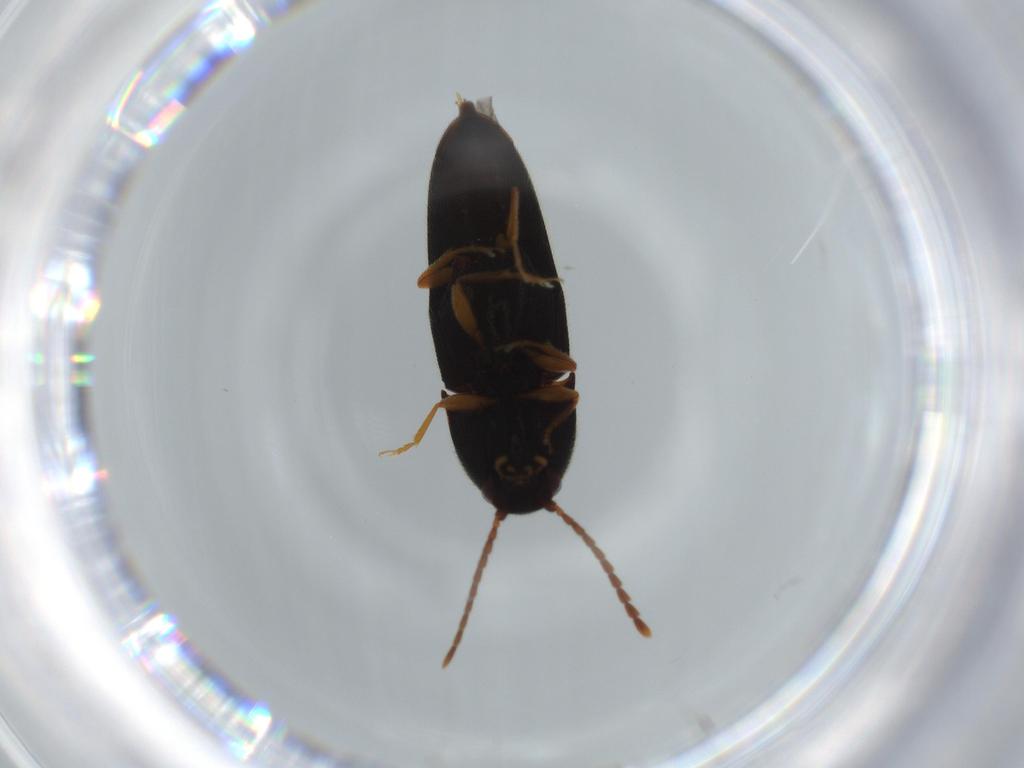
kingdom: Animalia
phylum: Arthropoda
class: Insecta
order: Coleoptera
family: Elateridae
